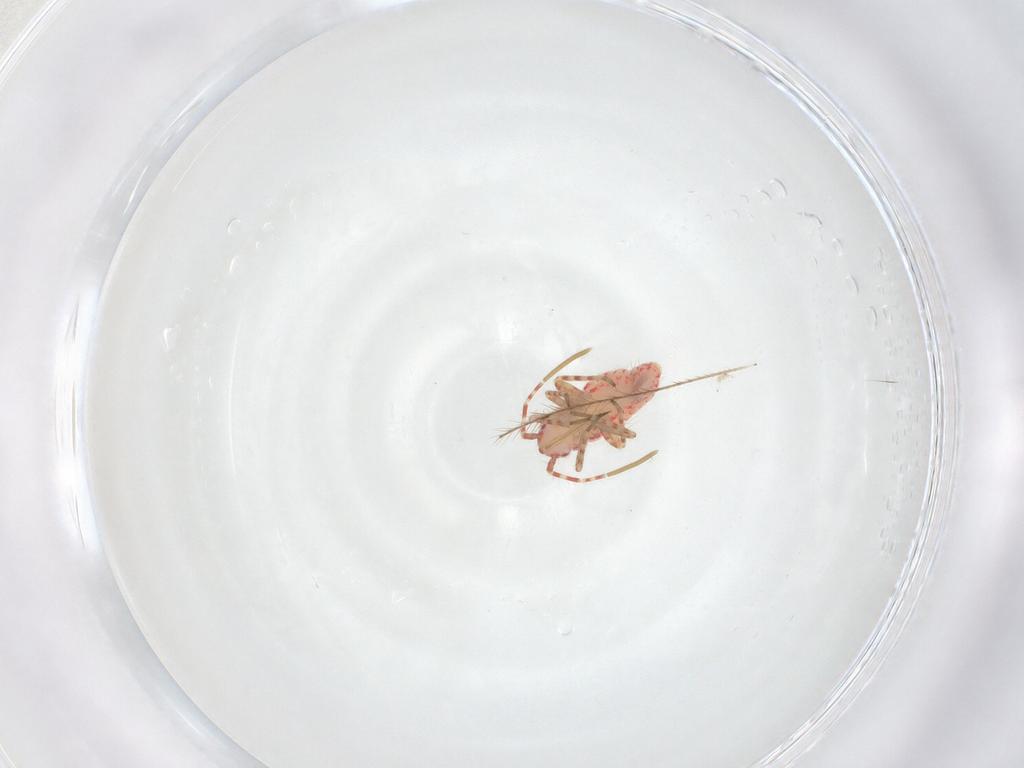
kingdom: Animalia
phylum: Arthropoda
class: Insecta
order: Hemiptera
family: Miridae
